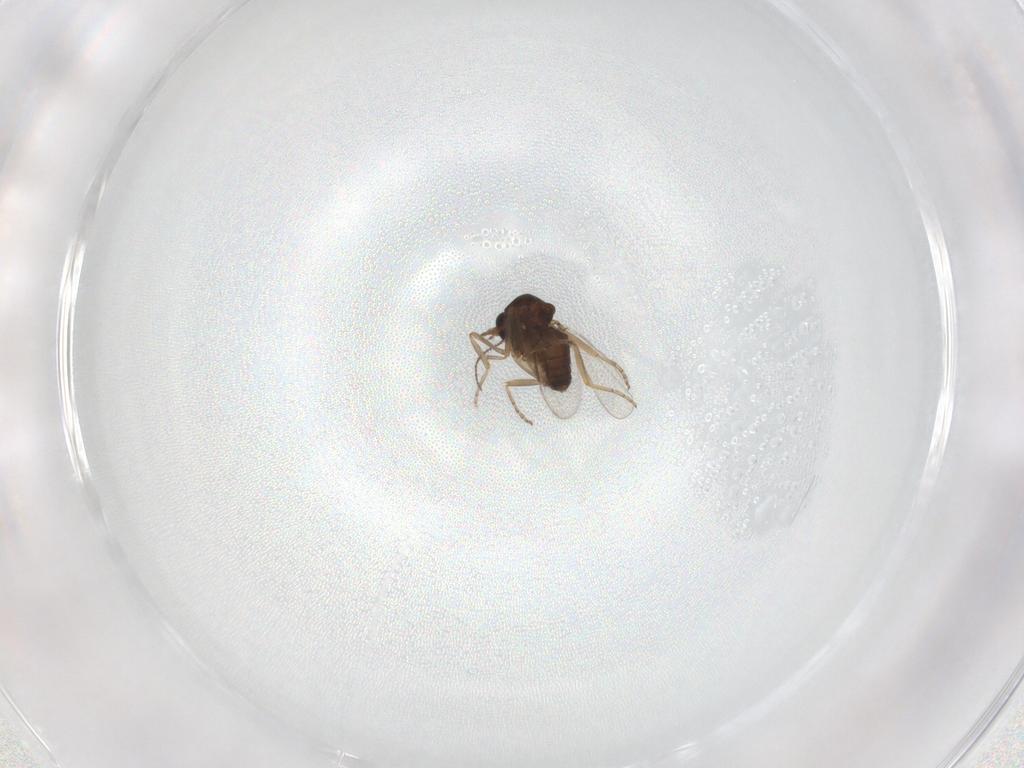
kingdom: Animalia
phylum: Arthropoda
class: Insecta
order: Diptera
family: Ceratopogonidae
